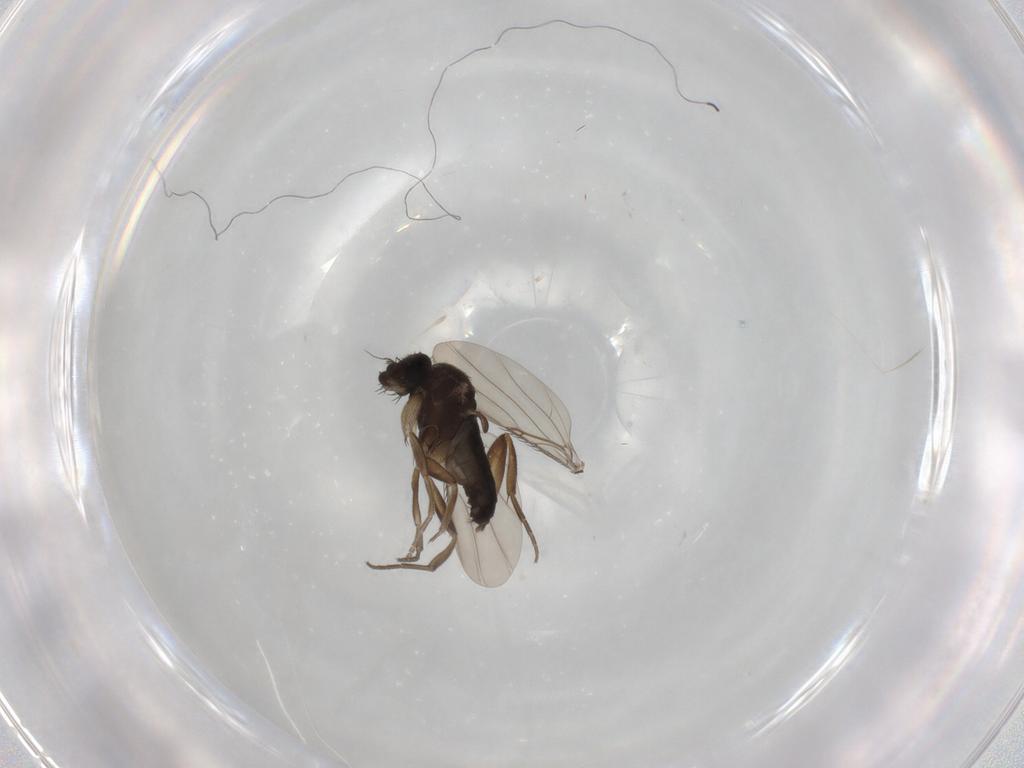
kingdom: Animalia
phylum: Arthropoda
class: Insecta
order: Diptera
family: Phoridae
